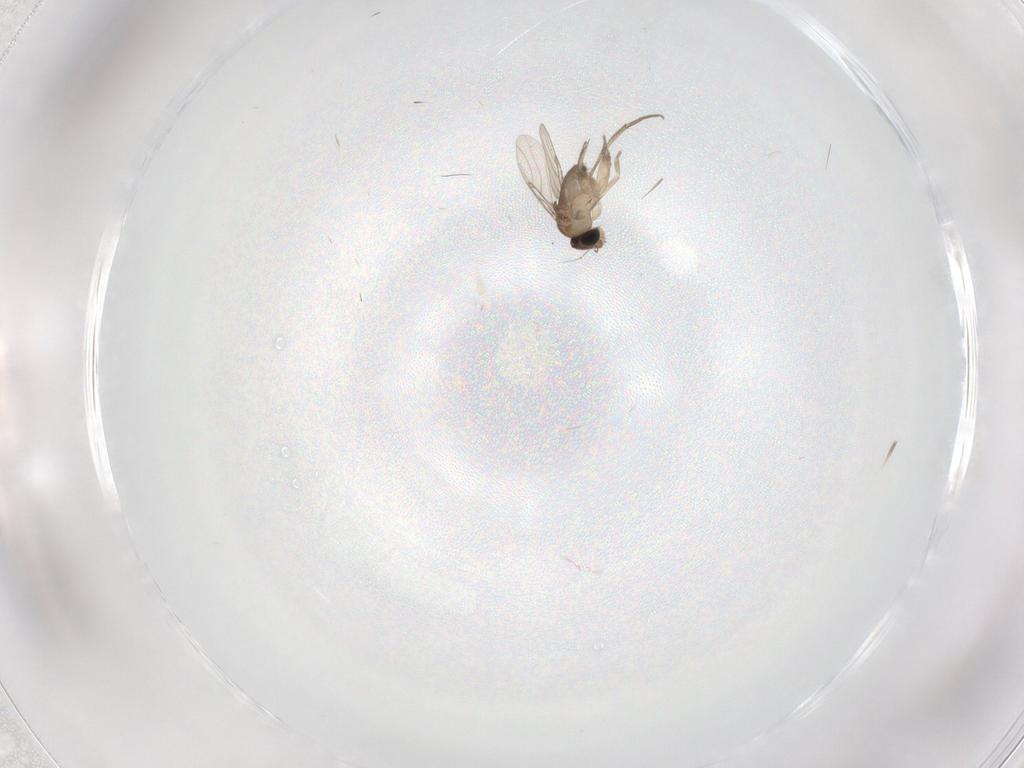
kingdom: Animalia
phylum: Arthropoda
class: Insecta
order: Diptera
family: Phoridae
